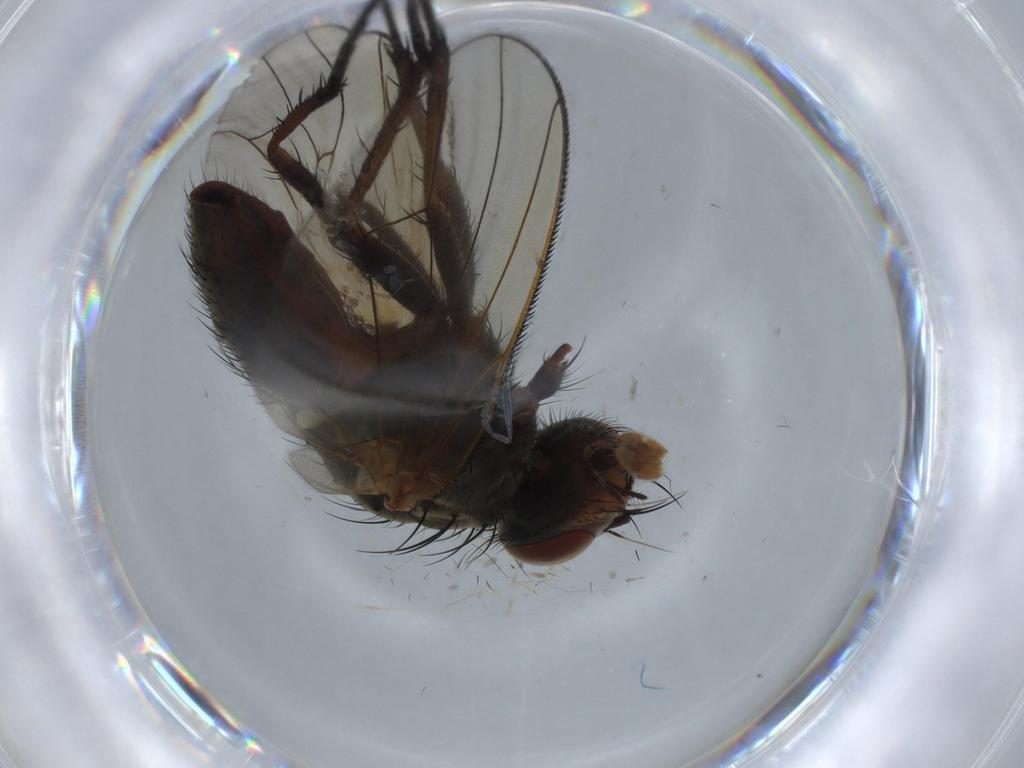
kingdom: Animalia
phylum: Arthropoda
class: Insecta
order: Diptera
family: Anthomyiidae
